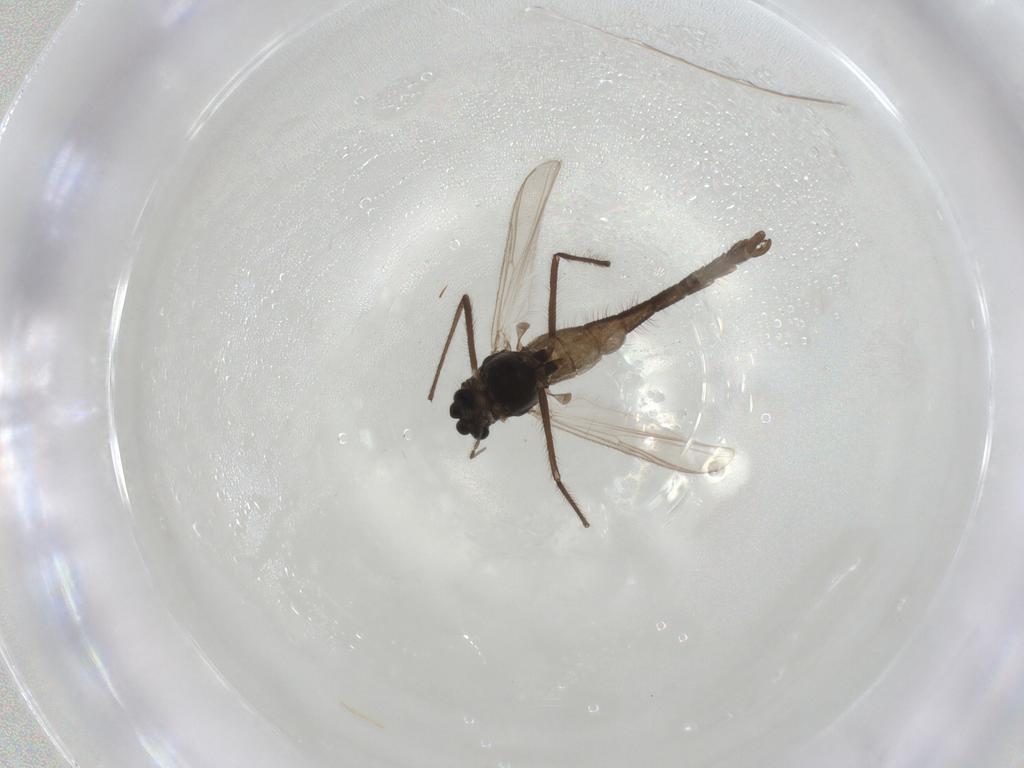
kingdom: Animalia
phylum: Arthropoda
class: Insecta
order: Diptera
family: Chironomidae
